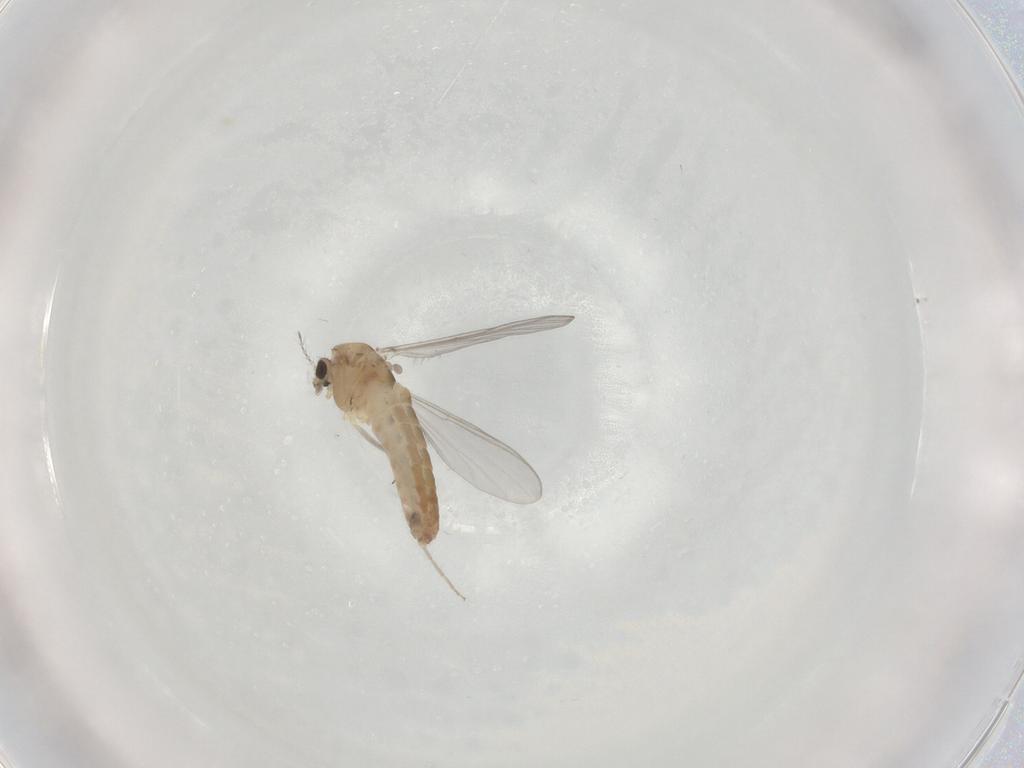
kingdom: Animalia
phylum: Arthropoda
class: Insecta
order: Diptera
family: Chironomidae
